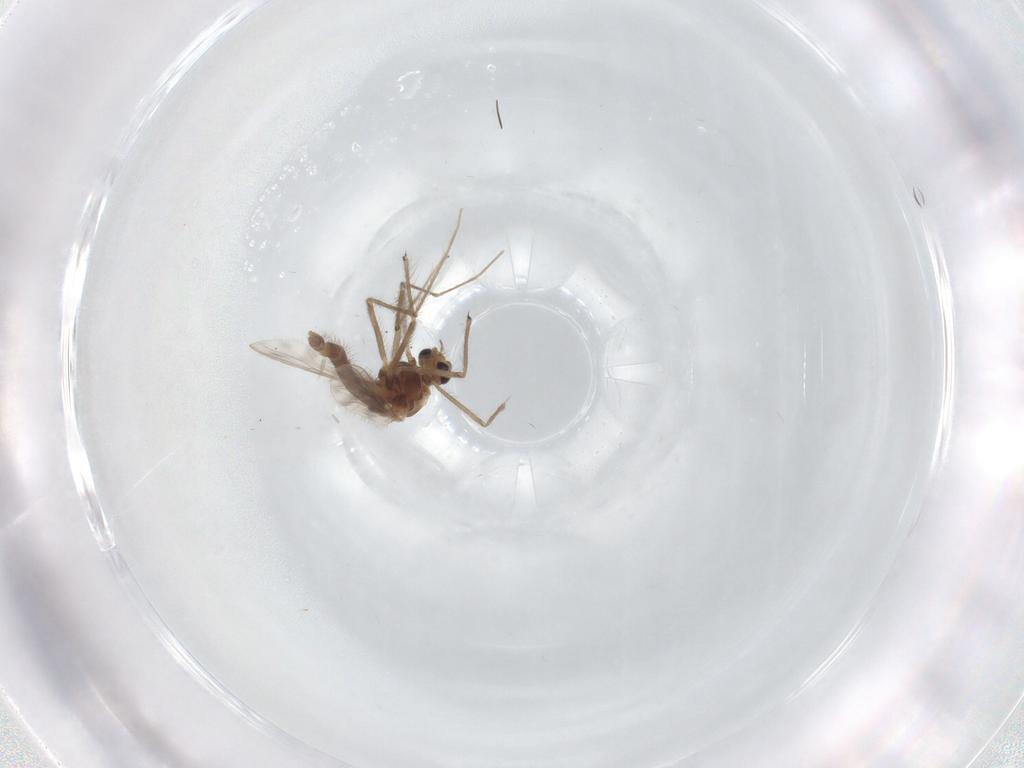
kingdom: Animalia
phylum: Arthropoda
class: Insecta
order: Diptera
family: Chironomidae
